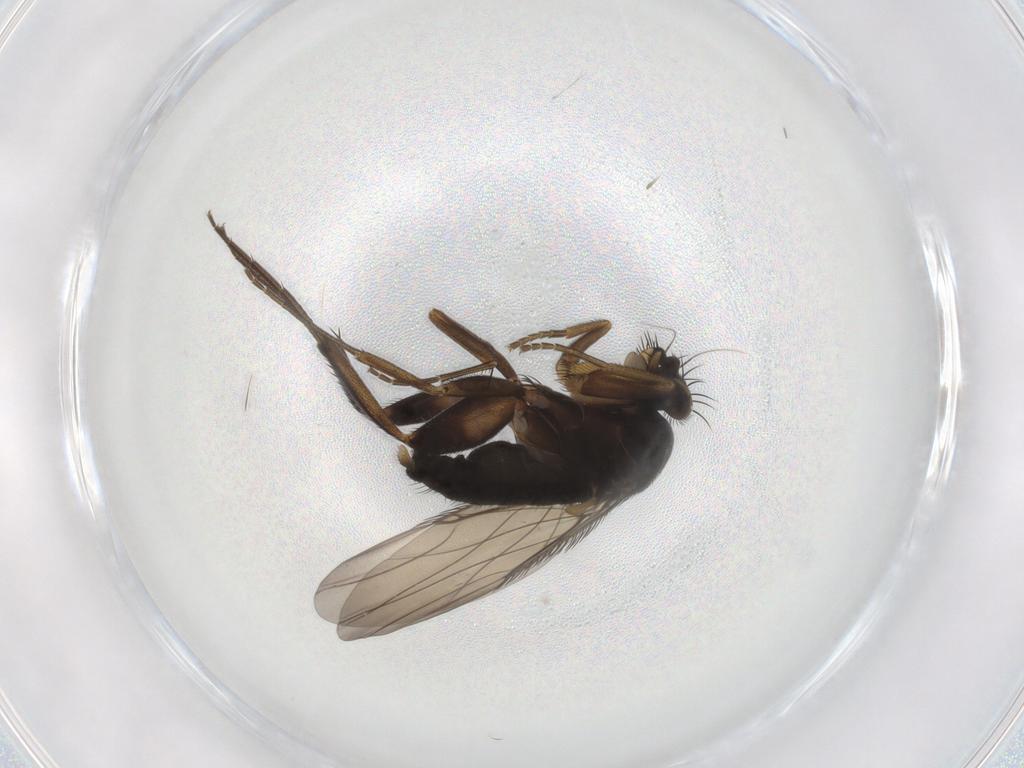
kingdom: Animalia
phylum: Arthropoda
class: Insecta
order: Diptera
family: Phoridae
